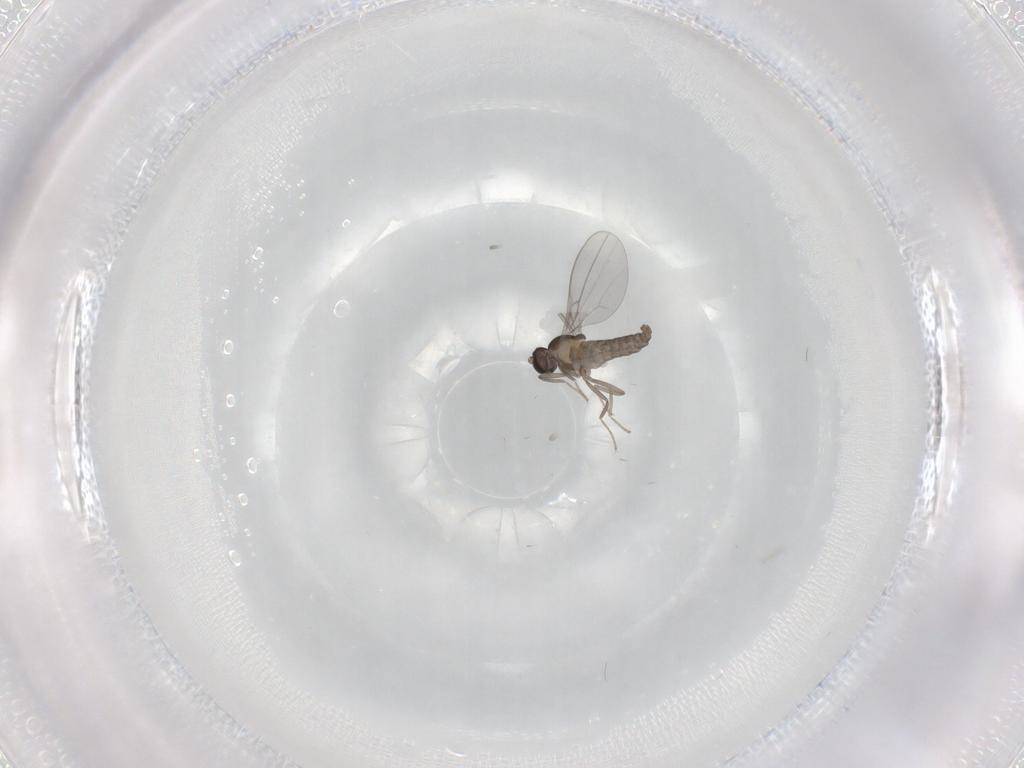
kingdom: Animalia
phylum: Arthropoda
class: Insecta
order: Diptera
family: Cecidomyiidae
